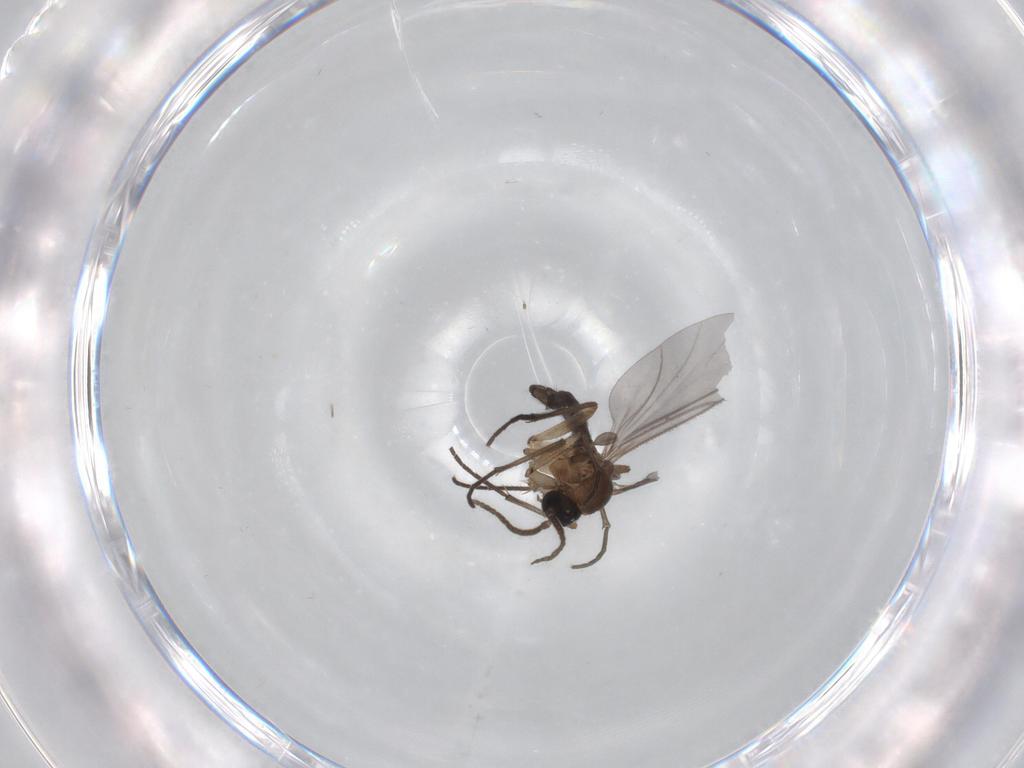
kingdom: Animalia
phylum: Arthropoda
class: Insecta
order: Diptera
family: Sciaridae
